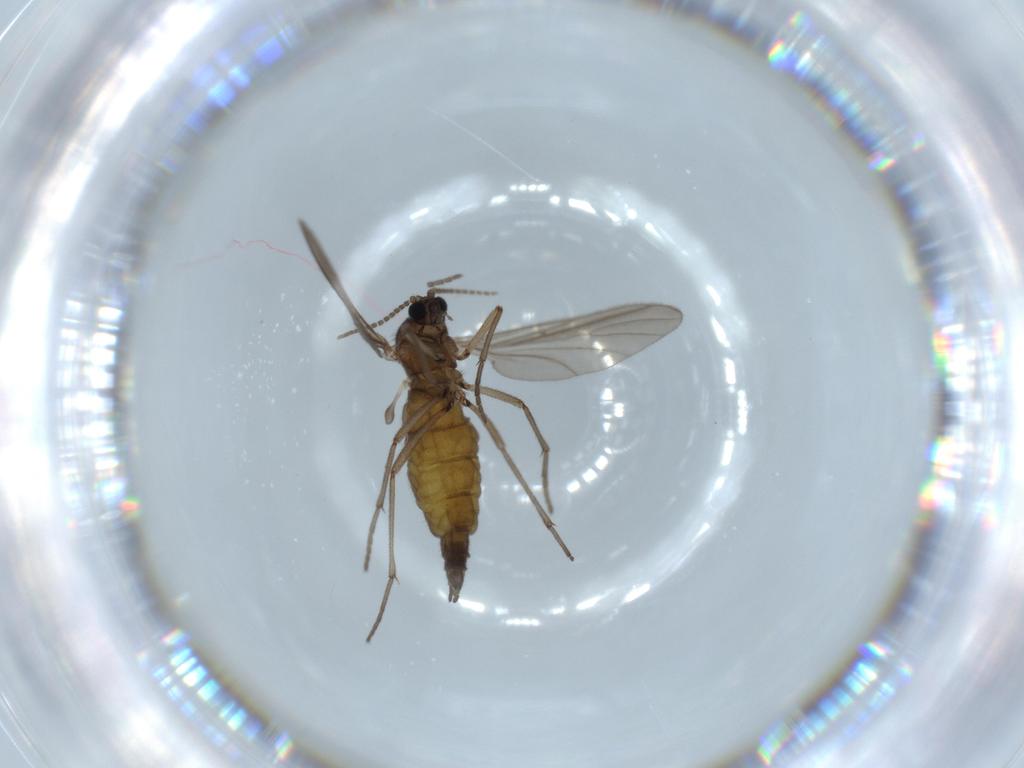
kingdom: Animalia
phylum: Arthropoda
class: Insecta
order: Diptera
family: Sciaridae
